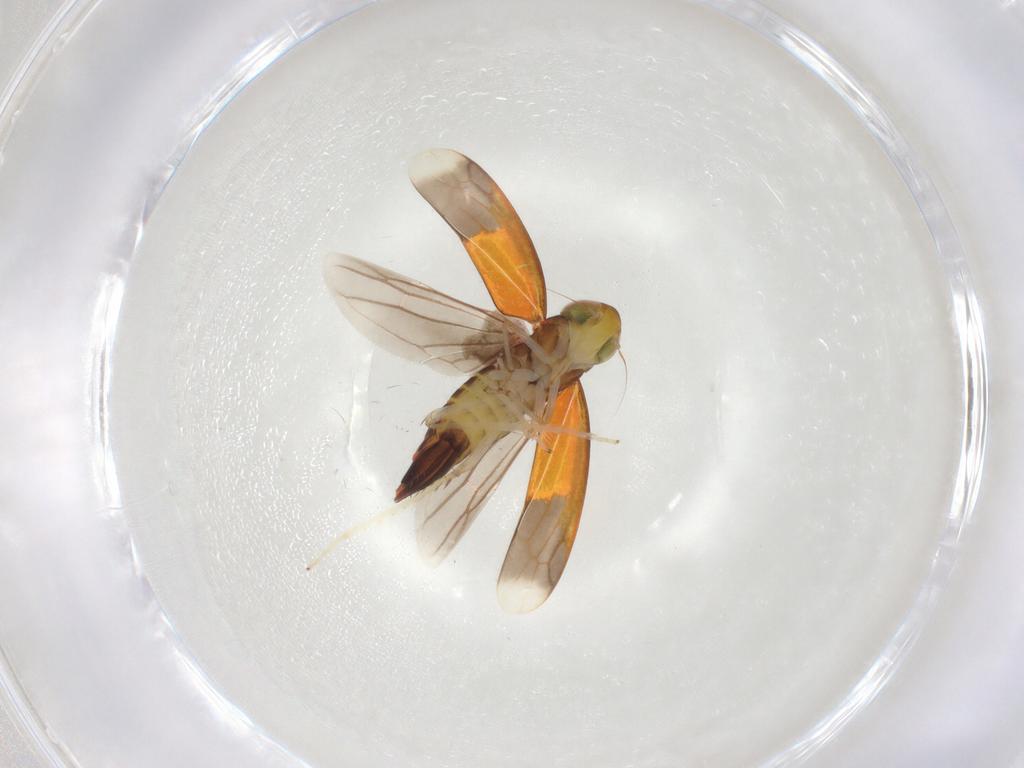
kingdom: Animalia
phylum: Arthropoda
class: Insecta
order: Hemiptera
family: Cicadellidae
